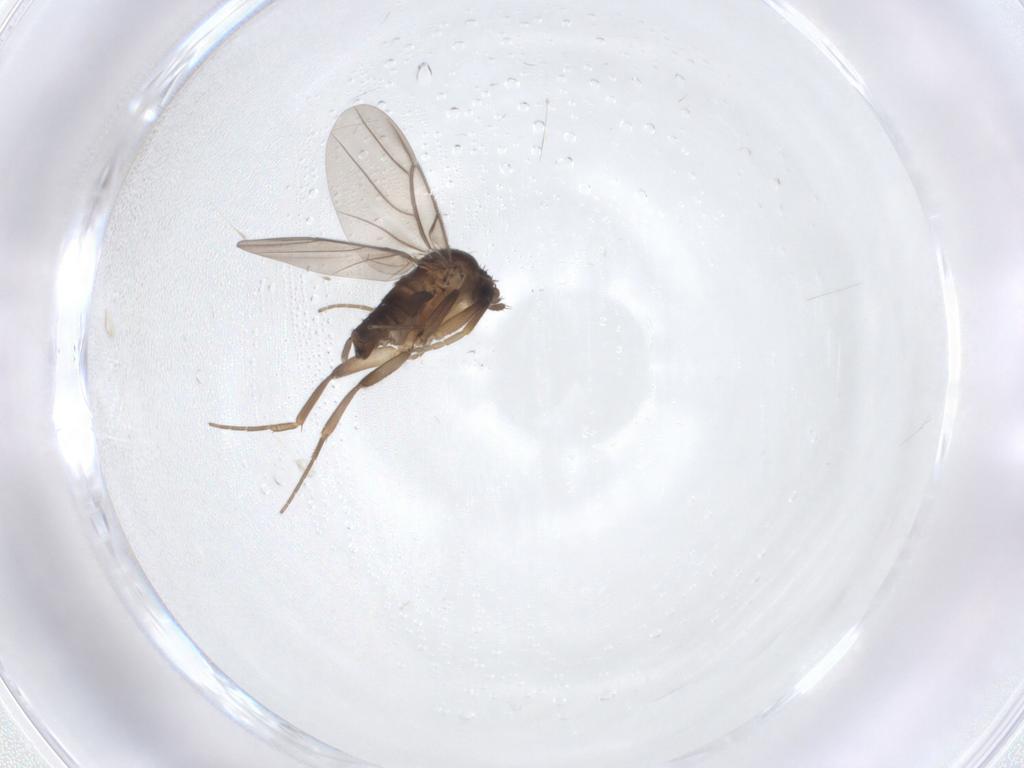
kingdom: Animalia
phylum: Arthropoda
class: Insecta
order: Diptera
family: Phoridae
